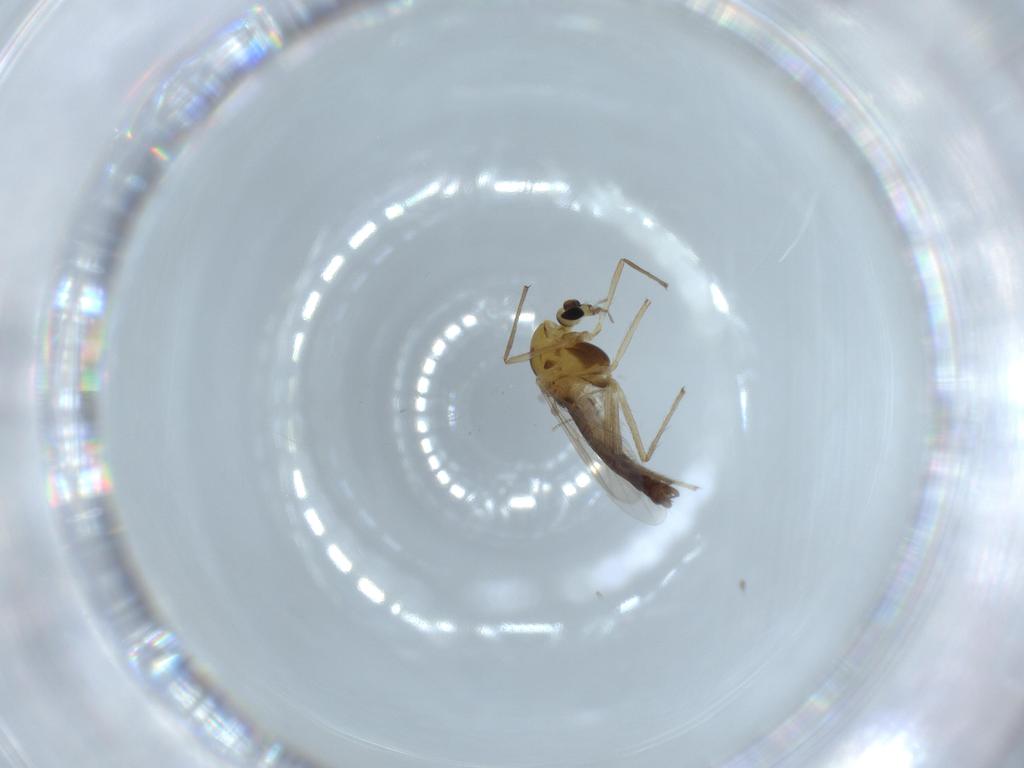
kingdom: Animalia
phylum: Arthropoda
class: Insecta
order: Diptera
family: Chironomidae
